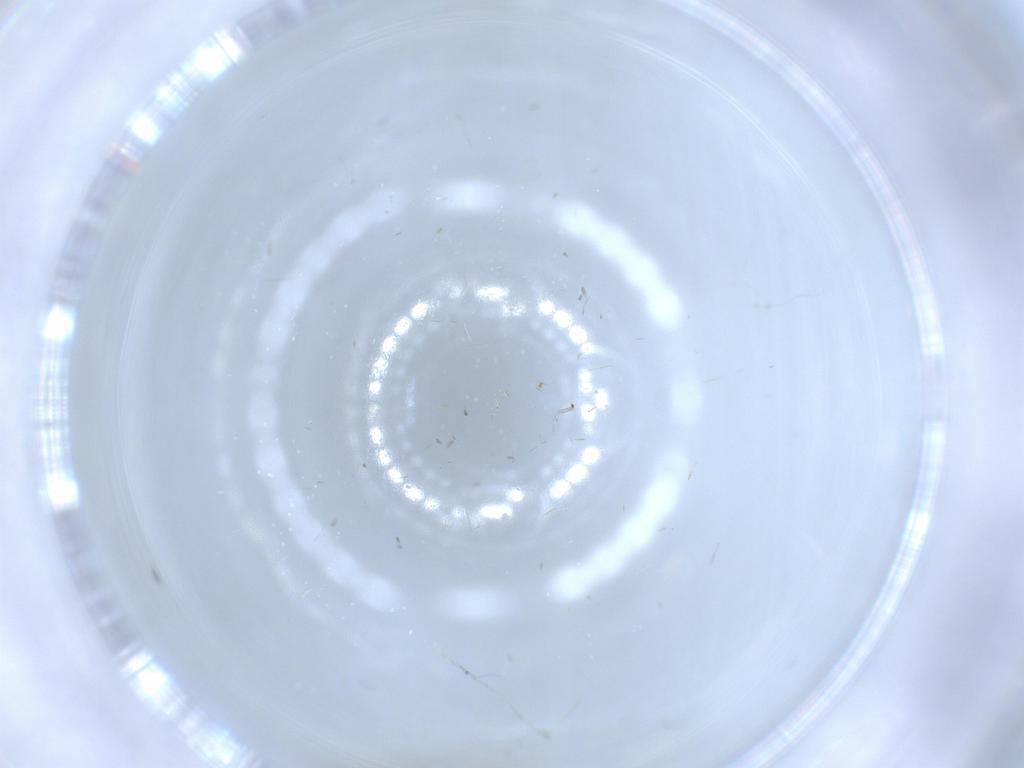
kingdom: Animalia
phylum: Arthropoda
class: Insecta
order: Lepidoptera
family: Tineidae
